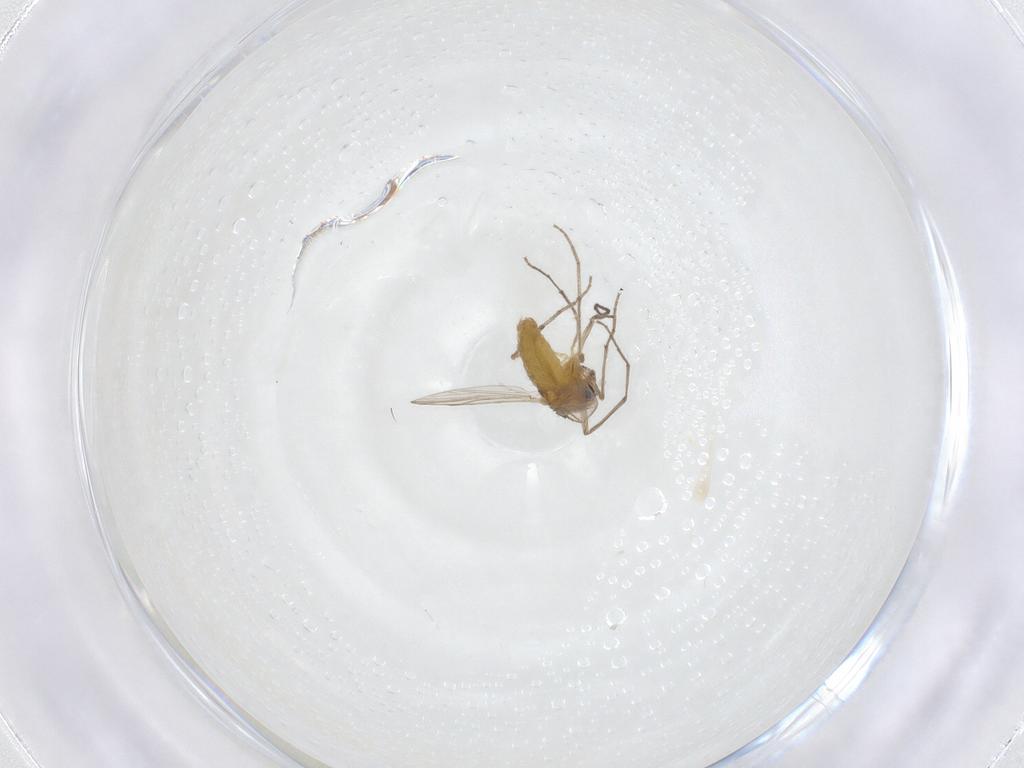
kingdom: Animalia
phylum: Arthropoda
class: Insecta
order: Diptera
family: Chironomidae
